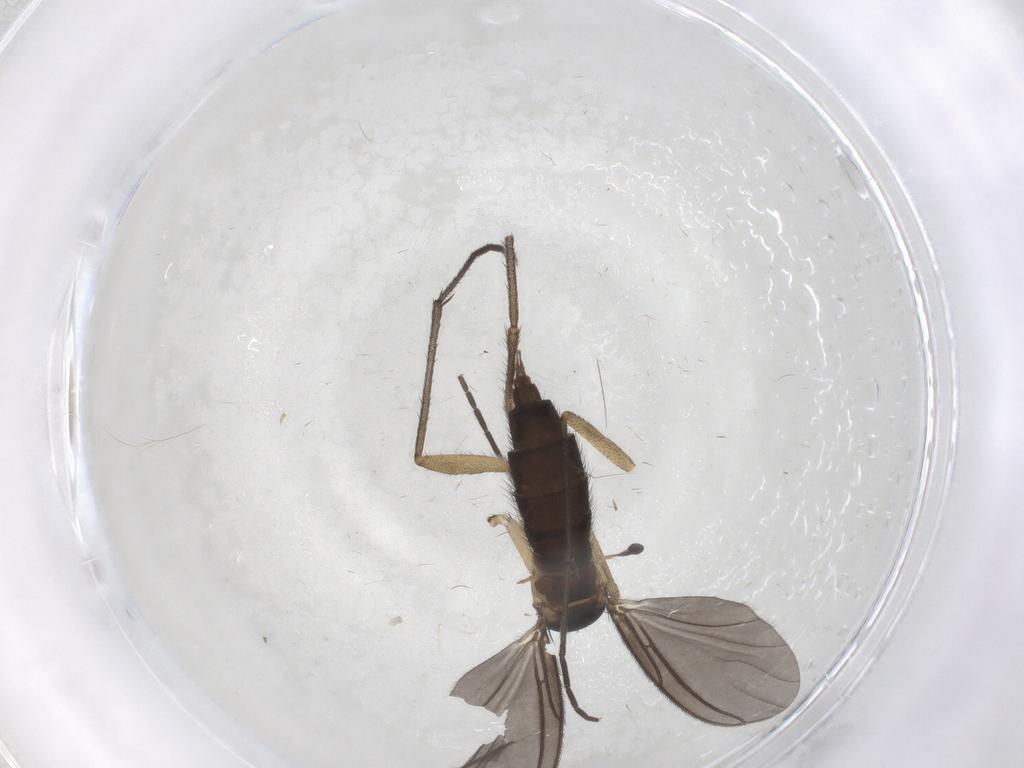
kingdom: Animalia
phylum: Arthropoda
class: Insecta
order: Diptera
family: Sciaridae
